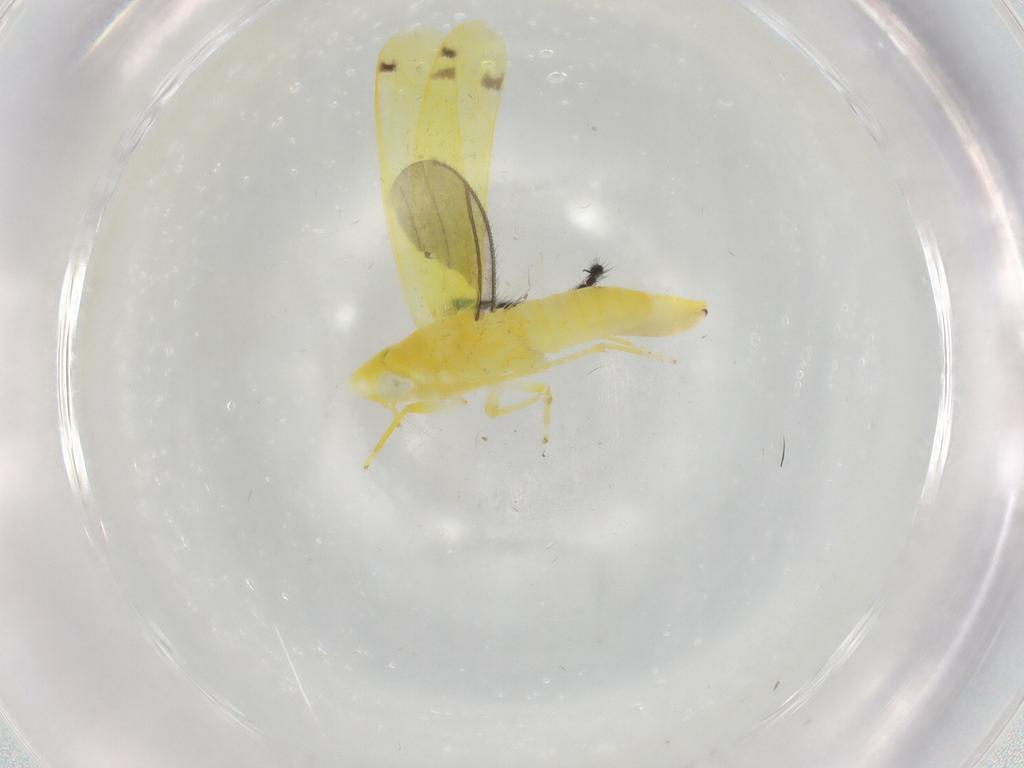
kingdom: Animalia
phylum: Arthropoda
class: Insecta
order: Hemiptera
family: Cicadellidae
